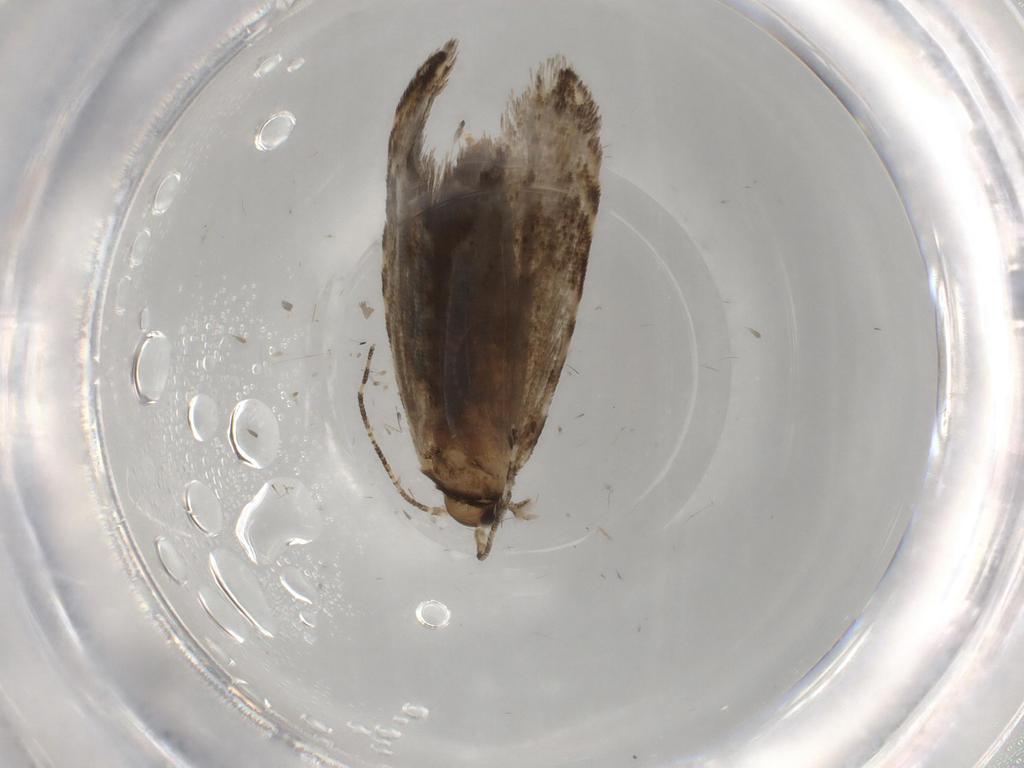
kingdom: Animalia
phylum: Arthropoda
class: Insecta
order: Lepidoptera
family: Tineidae
